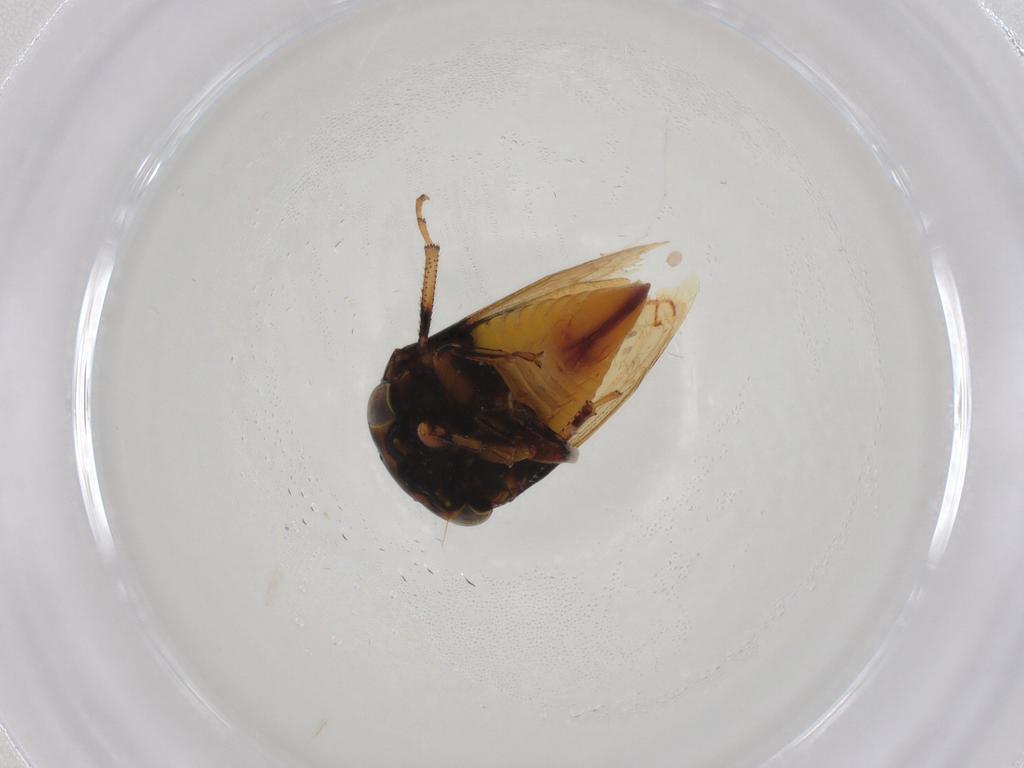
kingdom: Animalia
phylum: Arthropoda
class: Insecta
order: Hemiptera
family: Membracidae
